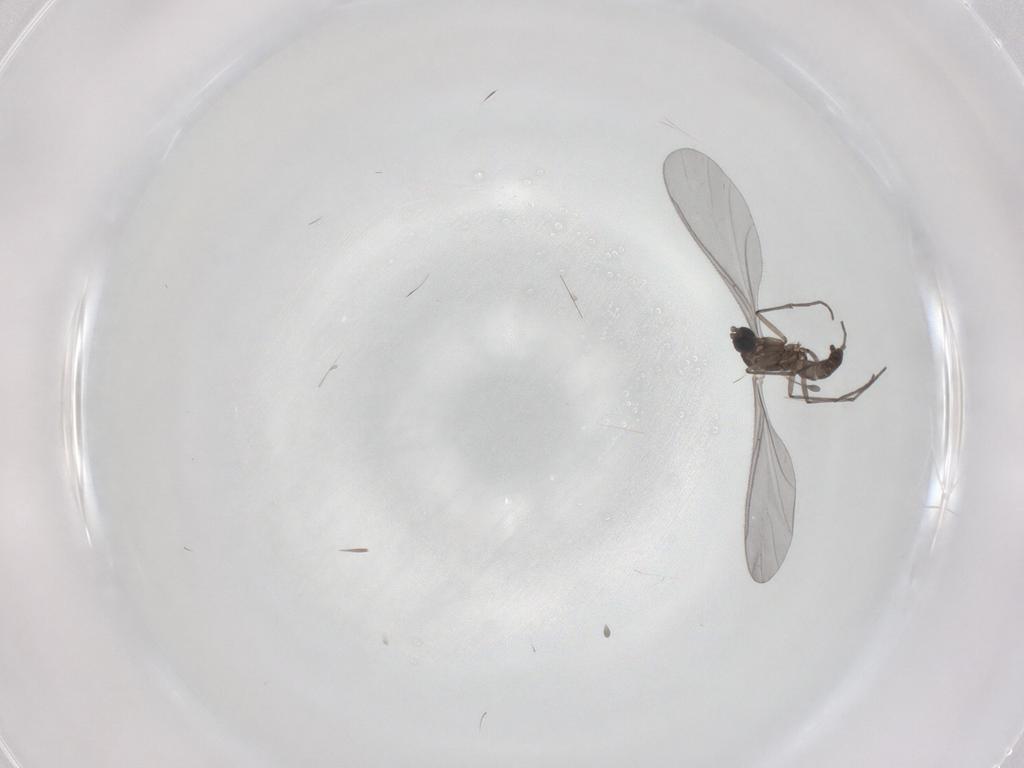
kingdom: Animalia
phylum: Arthropoda
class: Insecta
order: Diptera
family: Sciaridae
